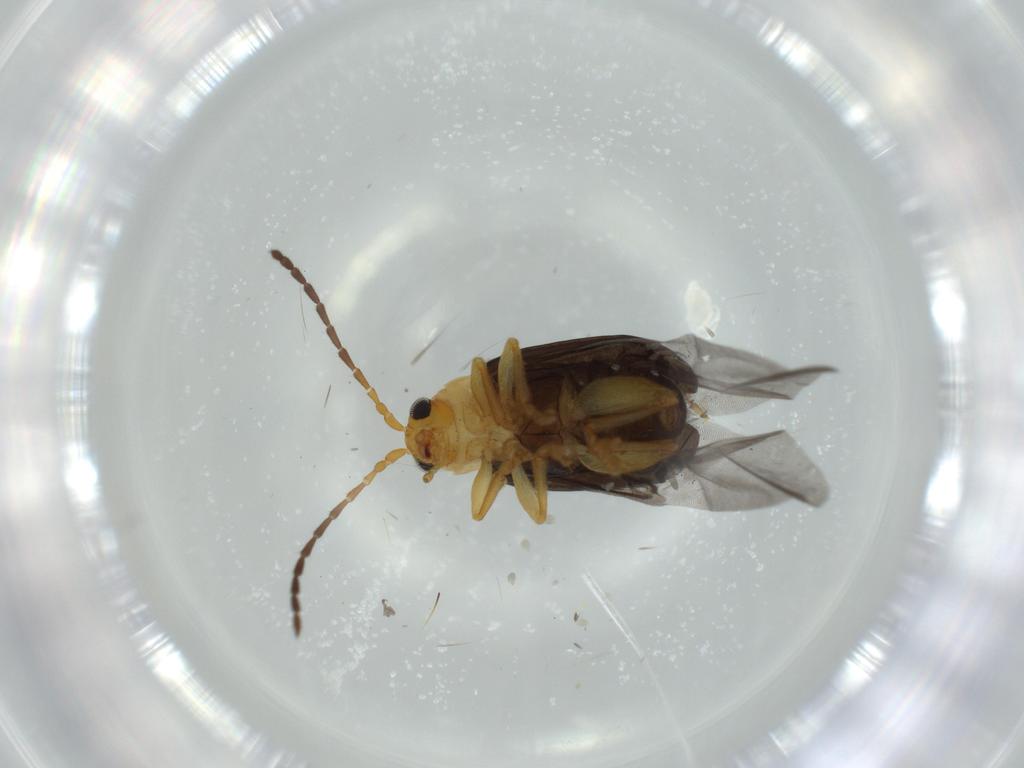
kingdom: Animalia
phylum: Arthropoda
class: Insecta
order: Coleoptera
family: Chrysomelidae
